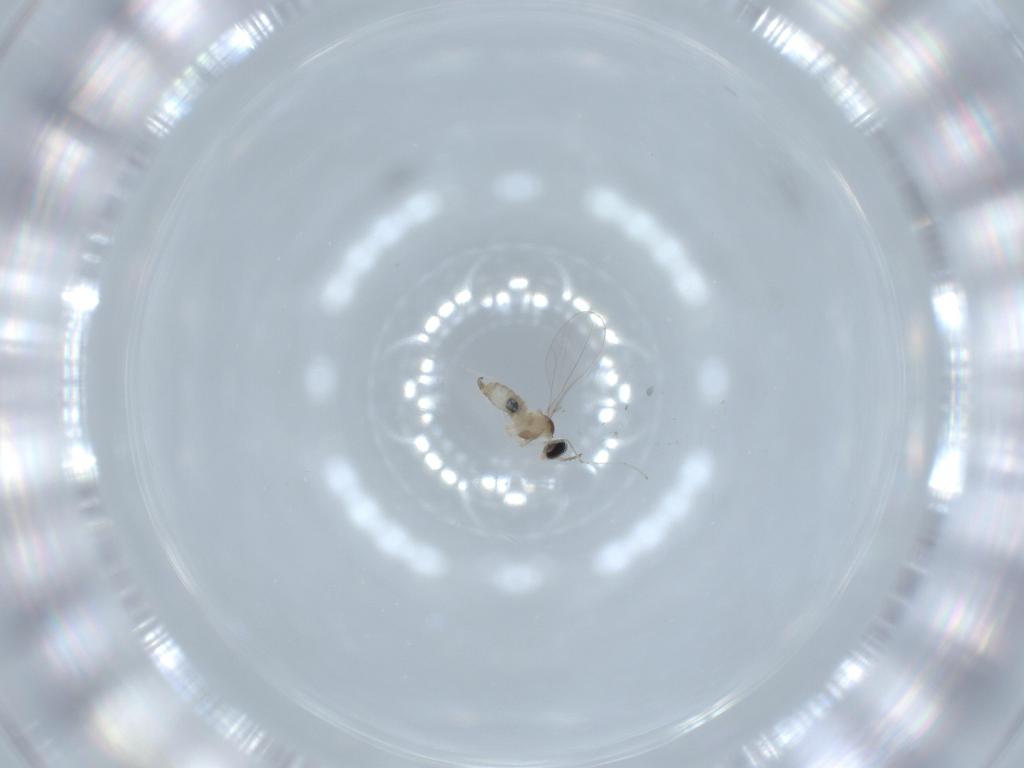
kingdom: Animalia
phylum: Arthropoda
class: Insecta
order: Diptera
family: Cecidomyiidae
